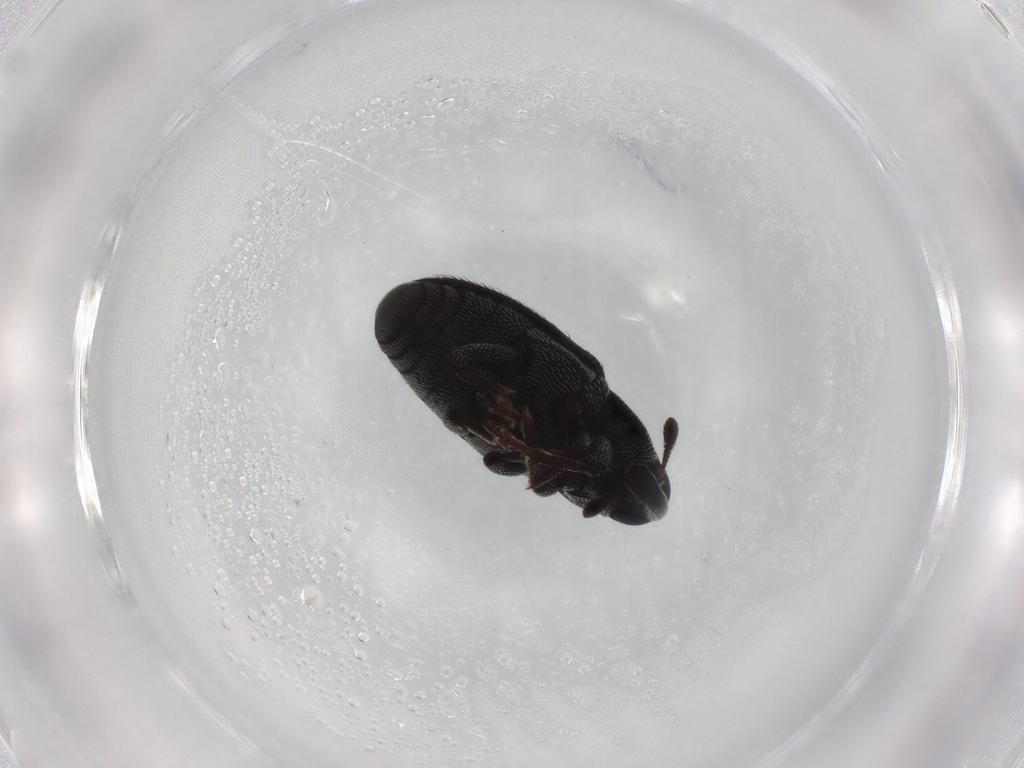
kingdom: Animalia
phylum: Arthropoda
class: Insecta
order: Coleoptera
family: Curculionidae
